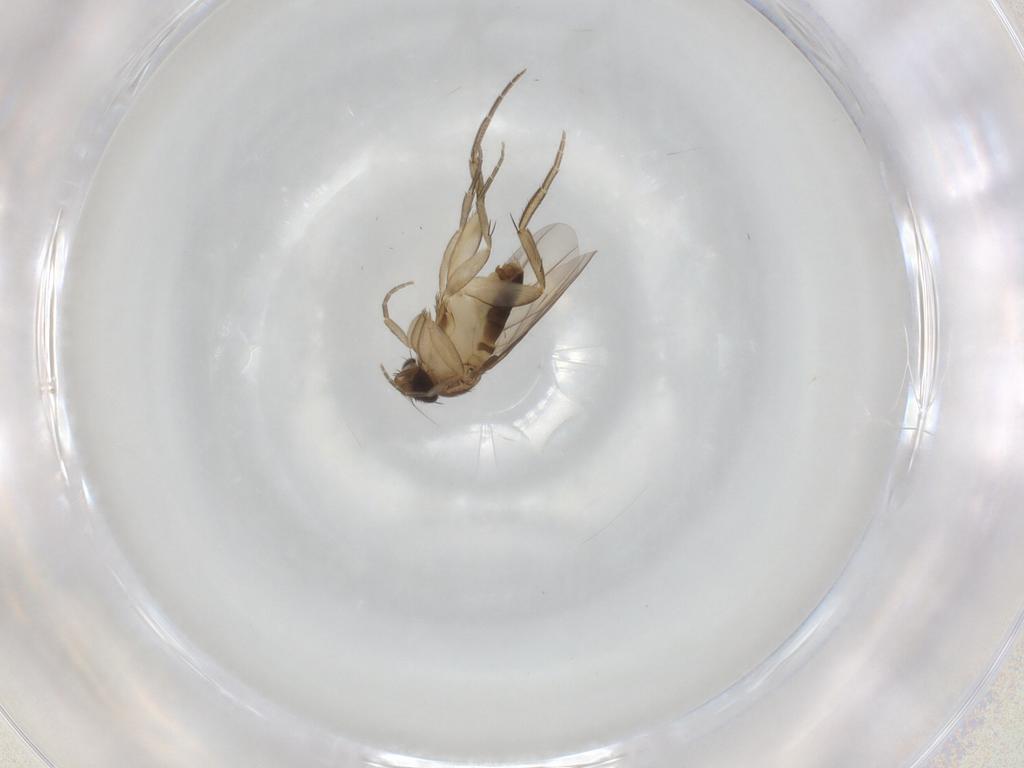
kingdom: Animalia
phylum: Arthropoda
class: Insecta
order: Diptera
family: Phoridae
